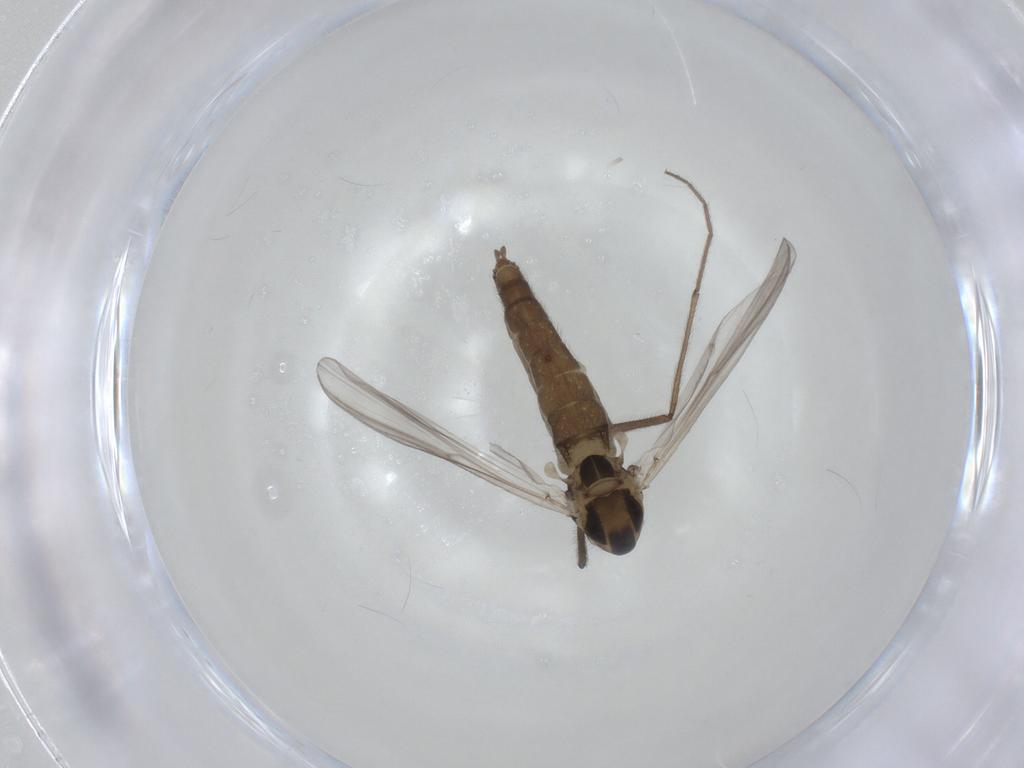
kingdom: Animalia
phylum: Arthropoda
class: Insecta
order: Diptera
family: Chironomidae
